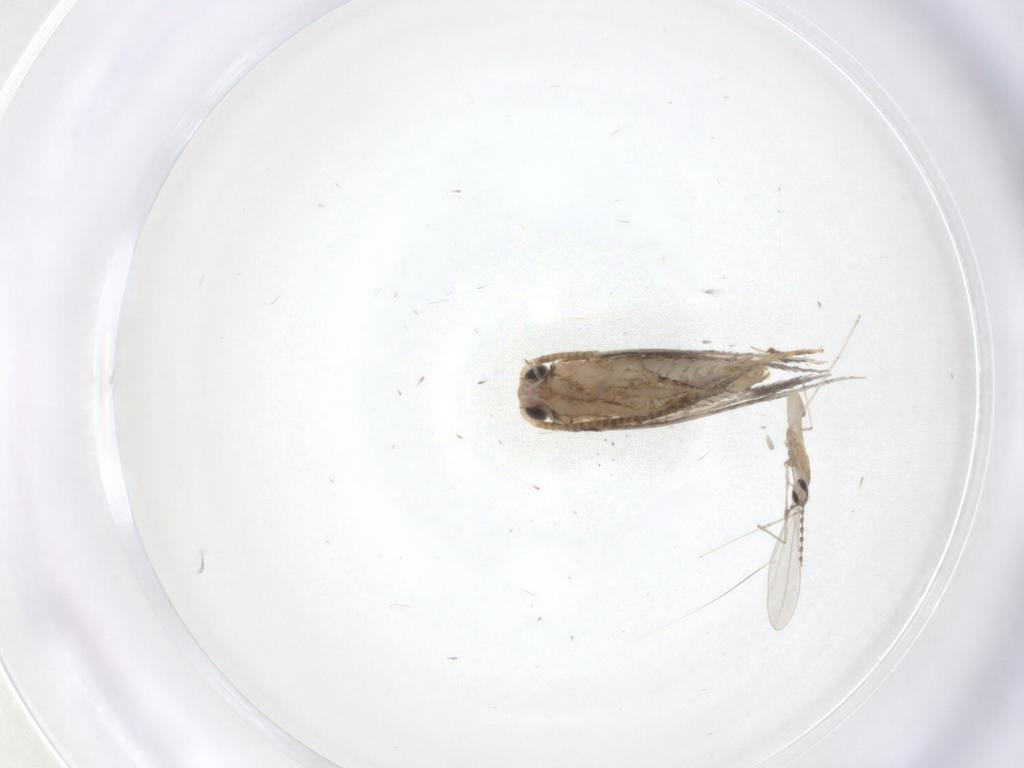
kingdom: Animalia
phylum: Arthropoda
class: Insecta
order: Lepidoptera
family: Tineidae
